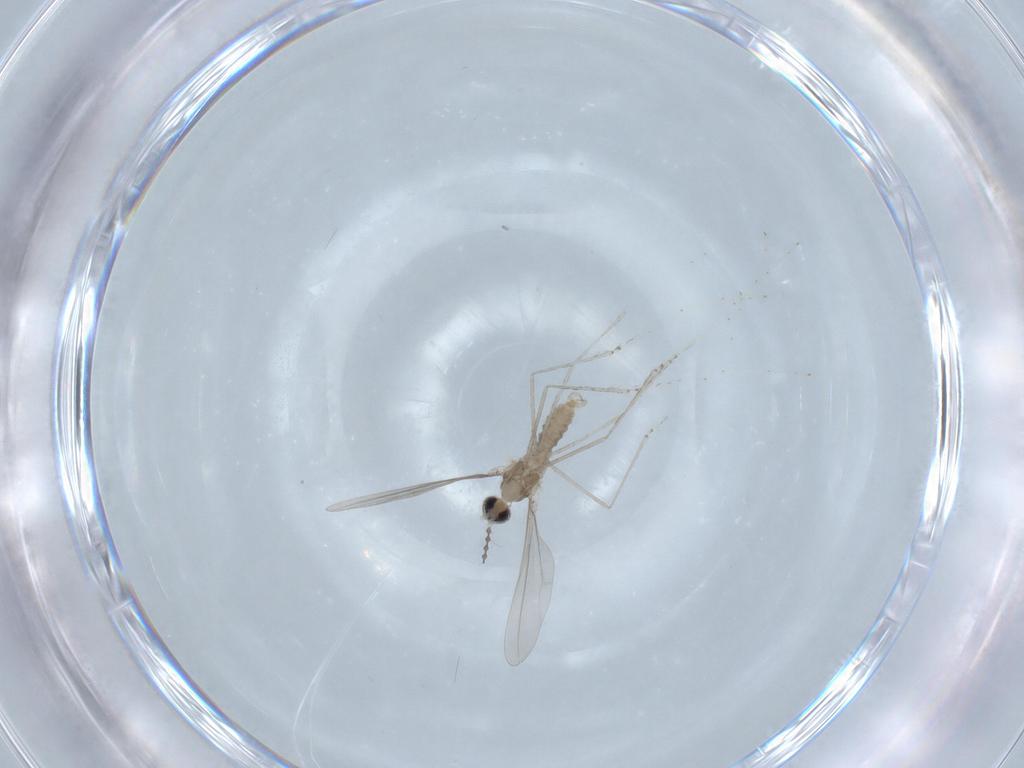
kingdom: Animalia
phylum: Arthropoda
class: Insecta
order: Diptera
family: Cecidomyiidae
